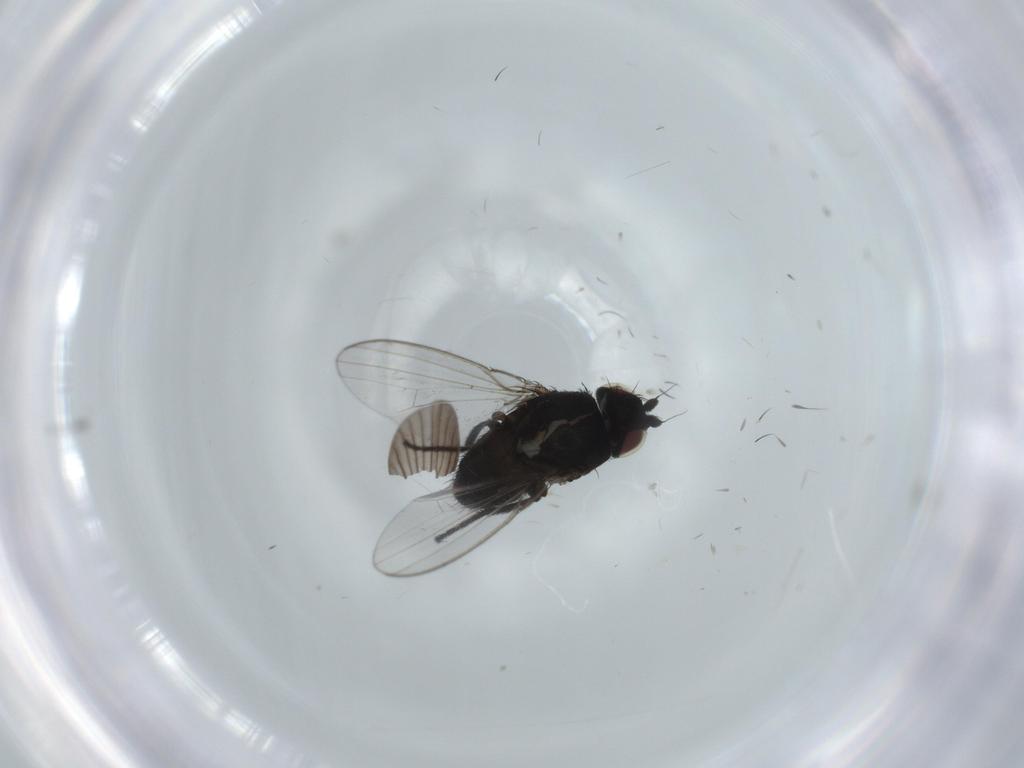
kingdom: Animalia
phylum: Arthropoda
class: Insecta
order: Diptera
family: Milichiidae
